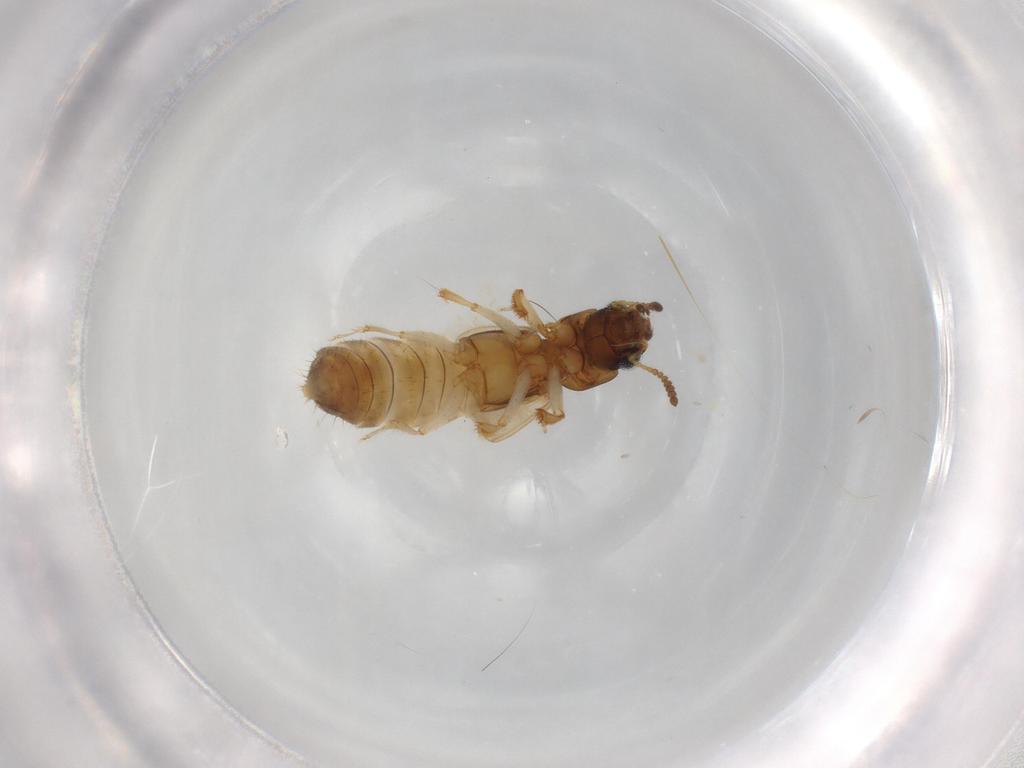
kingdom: Animalia
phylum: Arthropoda
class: Insecta
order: Coleoptera
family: Staphylinidae
